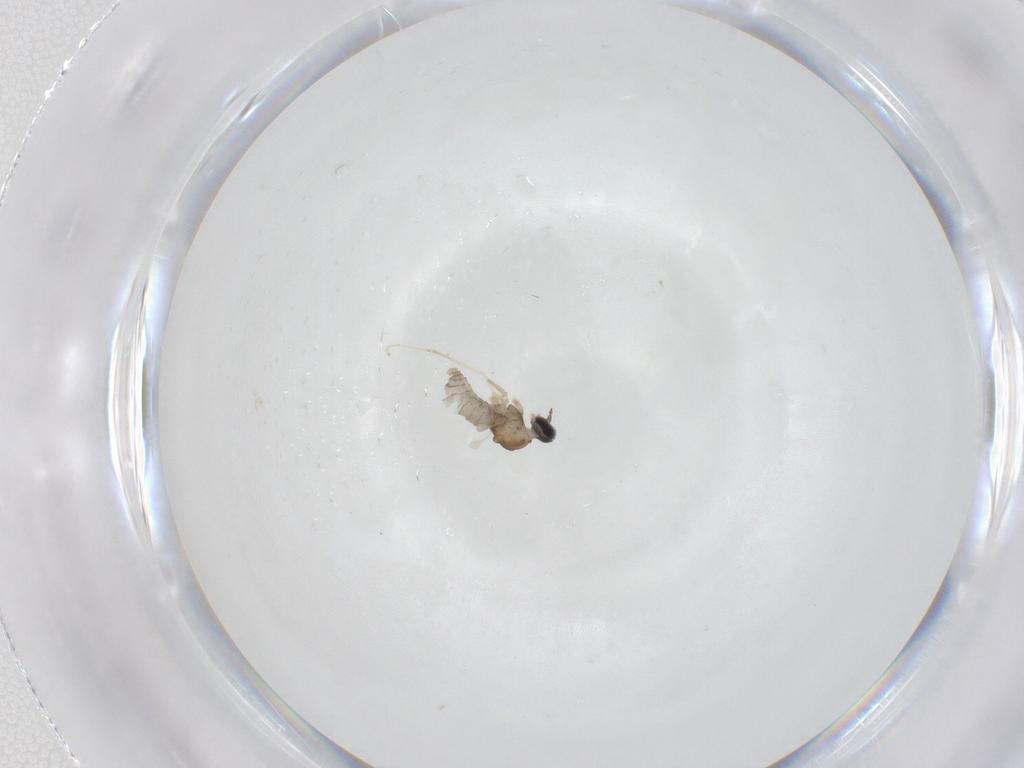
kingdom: Animalia
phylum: Arthropoda
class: Insecta
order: Diptera
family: Cecidomyiidae
